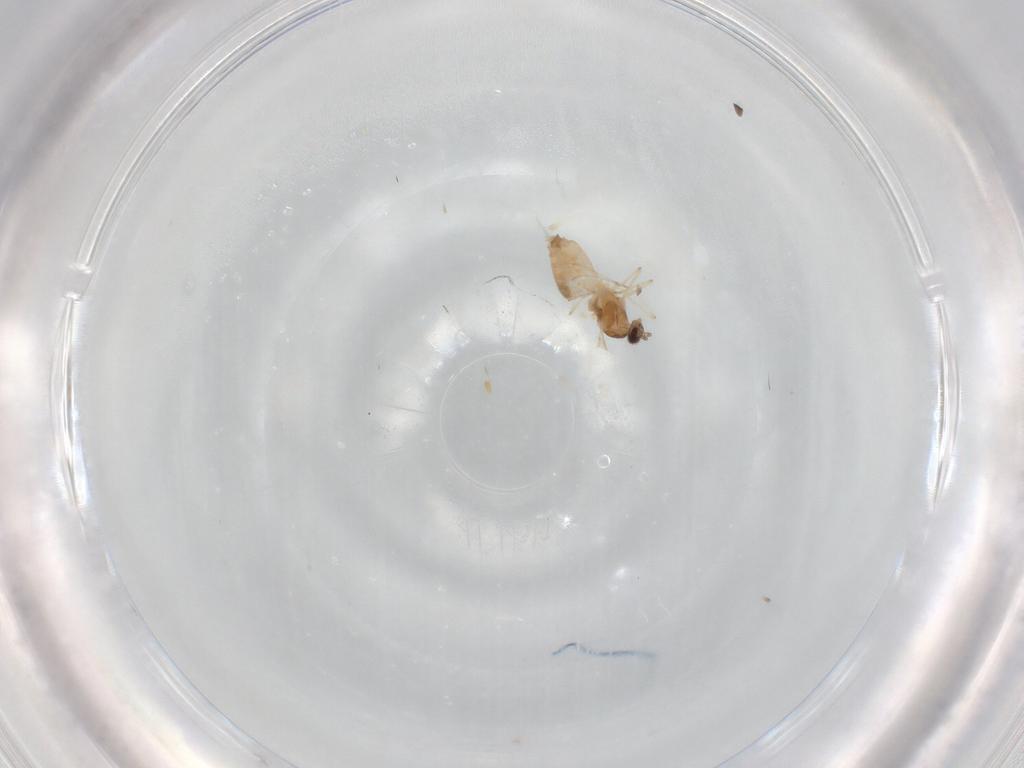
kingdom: Animalia
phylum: Arthropoda
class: Insecta
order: Diptera
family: Cecidomyiidae
